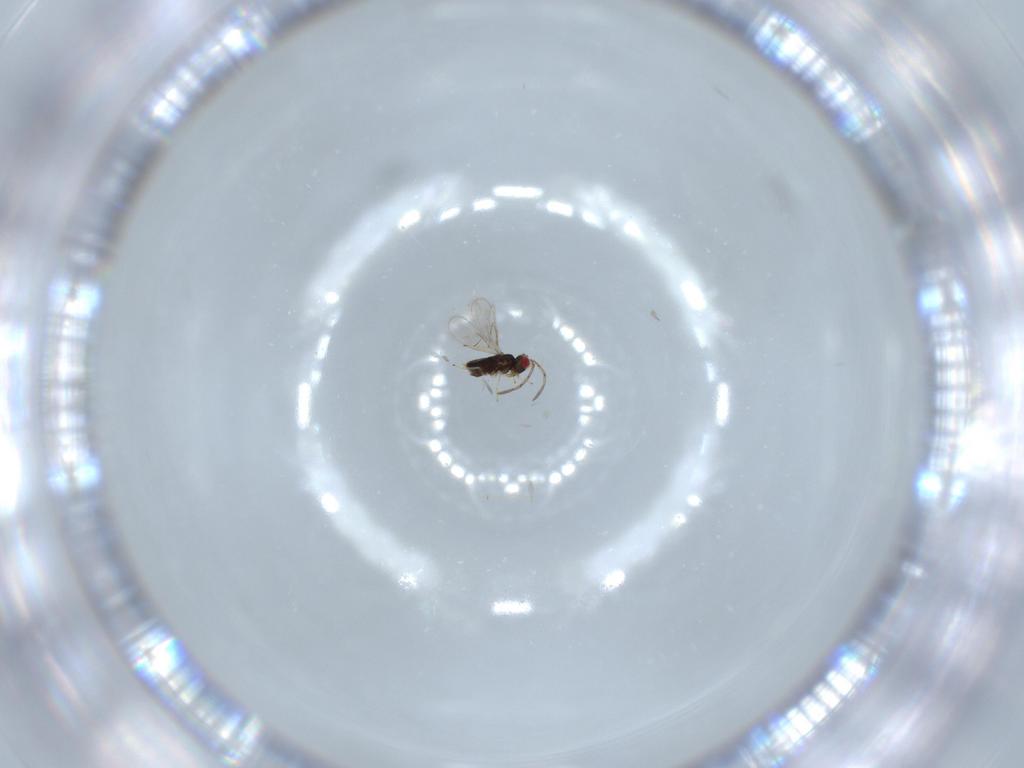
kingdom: Animalia
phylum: Arthropoda
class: Insecta
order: Hymenoptera
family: Azotidae
